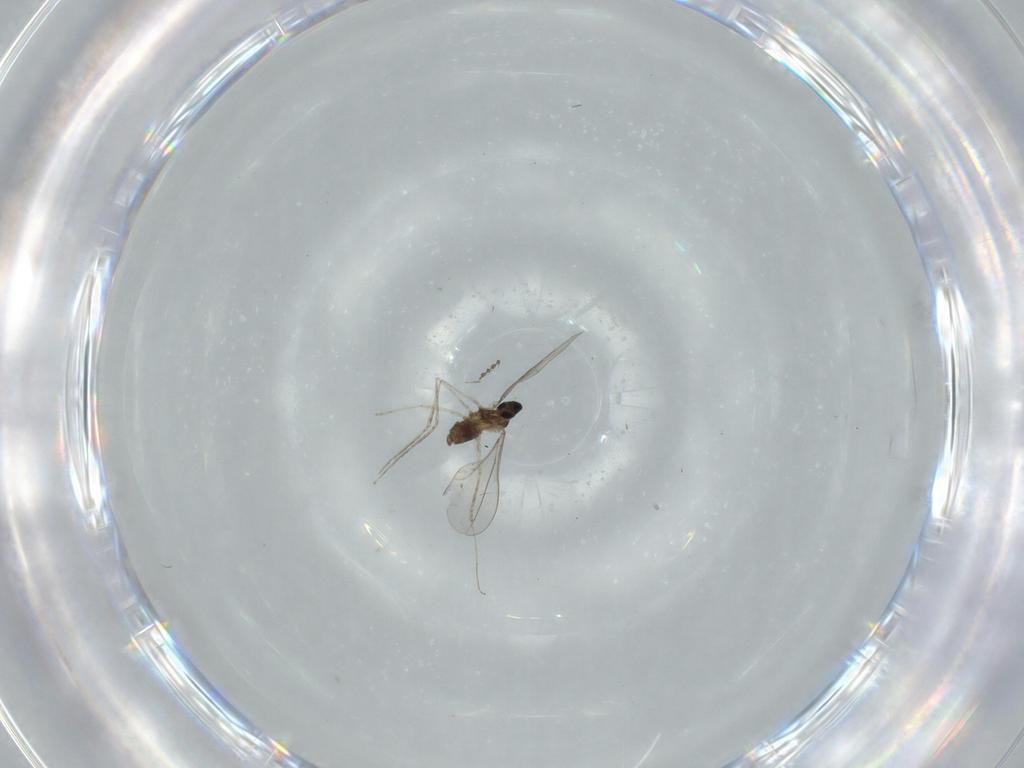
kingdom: Animalia
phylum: Arthropoda
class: Insecta
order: Diptera
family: Cecidomyiidae
